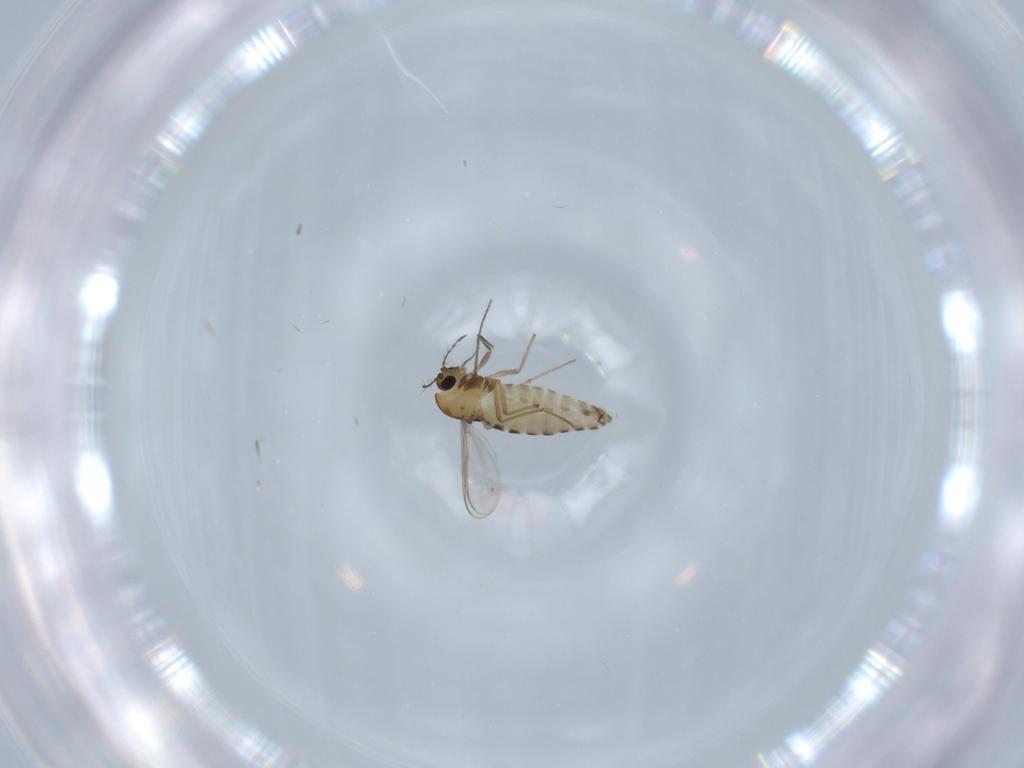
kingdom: Animalia
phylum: Arthropoda
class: Insecta
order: Diptera
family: Chironomidae
